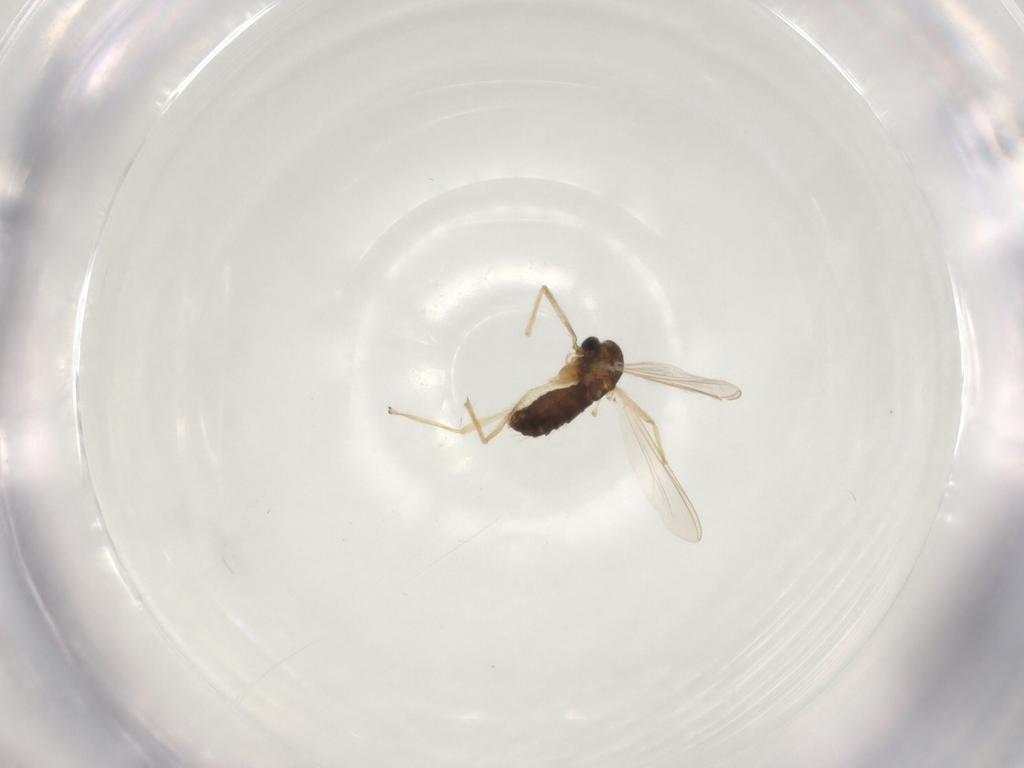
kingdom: Animalia
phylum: Arthropoda
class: Insecta
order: Diptera
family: Chironomidae
